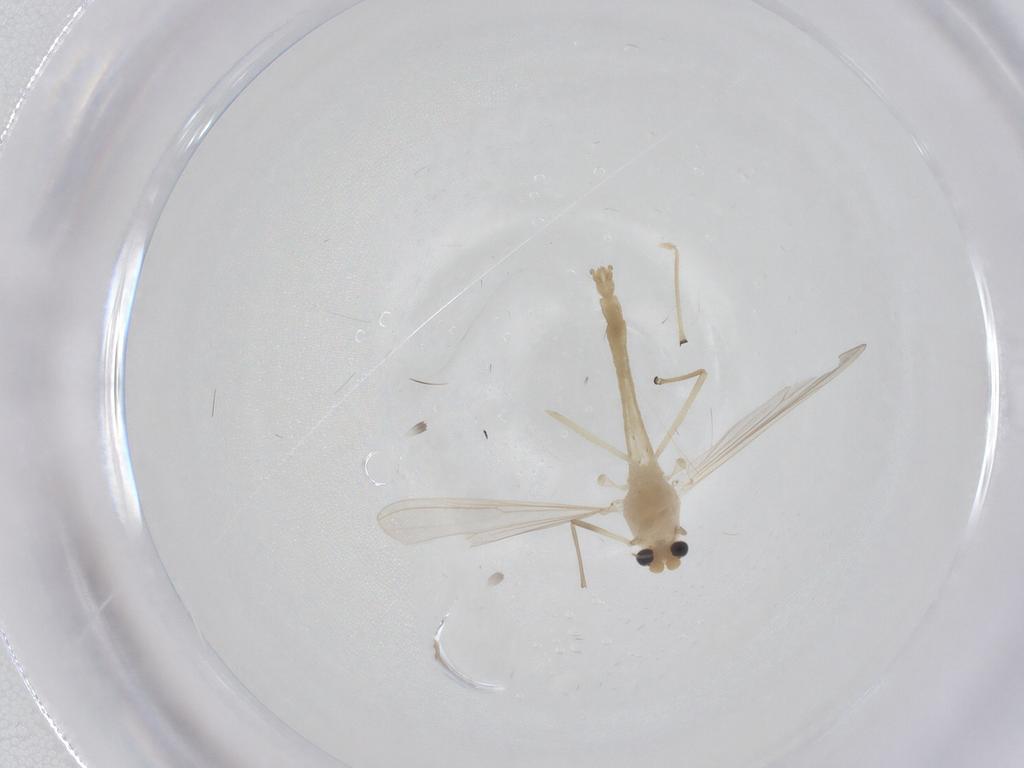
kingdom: Animalia
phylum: Arthropoda
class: Insecta
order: Diptera
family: Chironomidae
